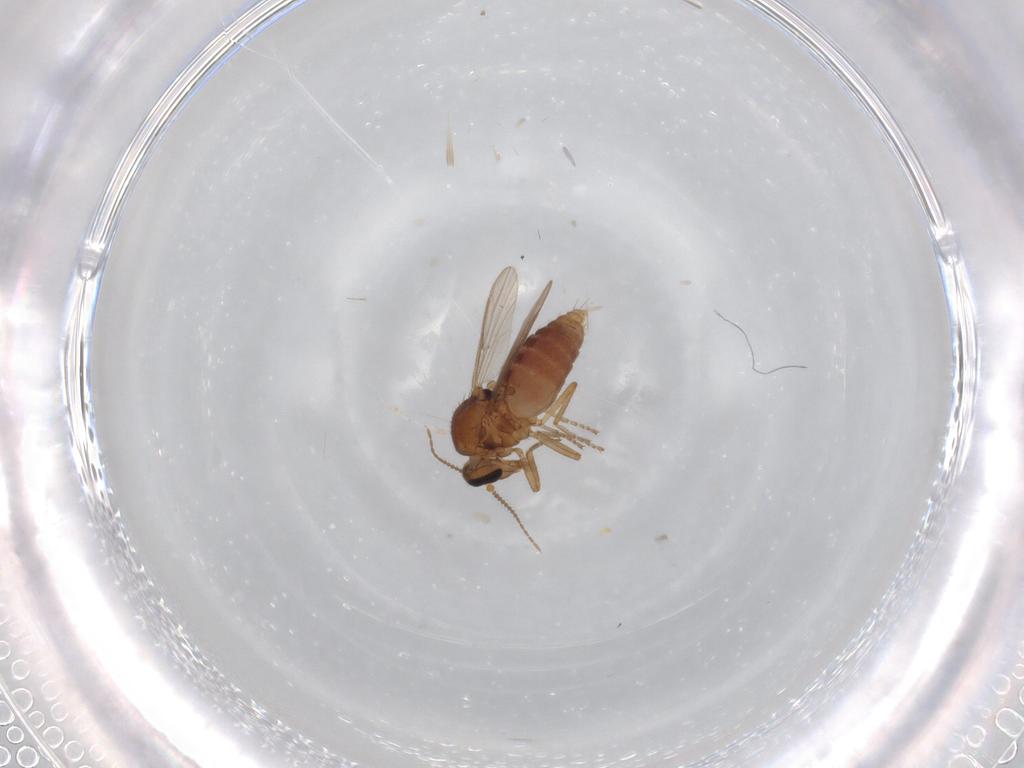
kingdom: Animalia
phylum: Arthropoda
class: Insecta
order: Diptera
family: Ceratopogonidae
